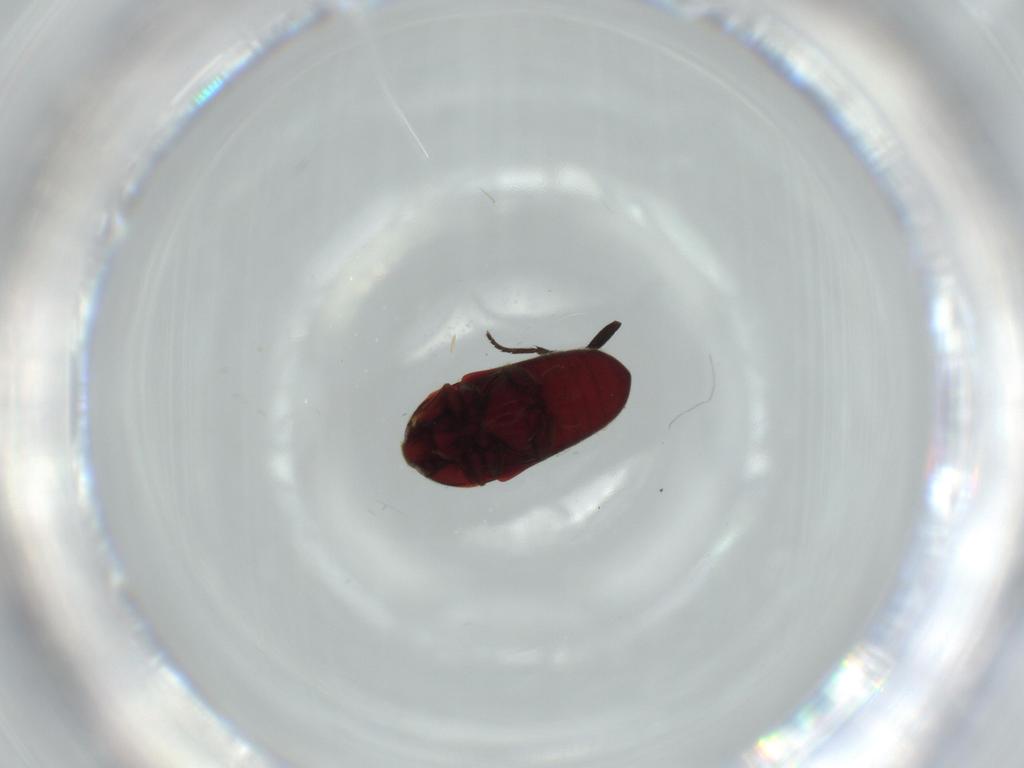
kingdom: Animalia
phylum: Arthropoda
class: Insecta
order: Coleoptera
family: Throscidae
